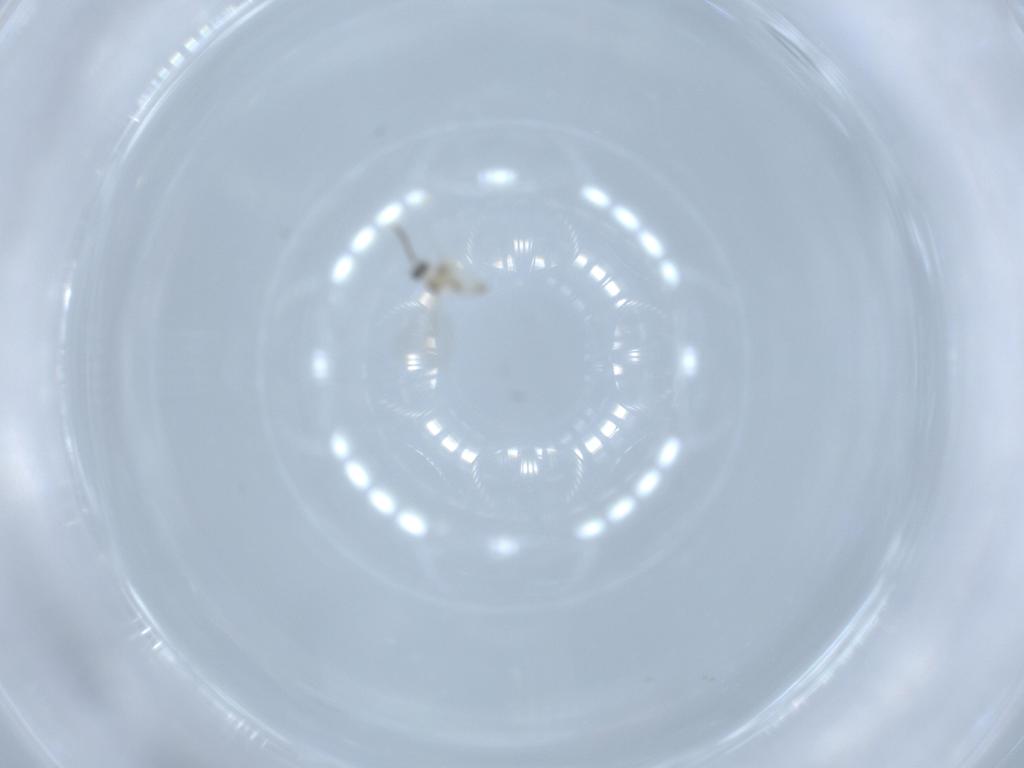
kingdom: Animalia
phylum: Arthropoda
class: Insecta
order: Diptera
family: Cecidomyiidae
